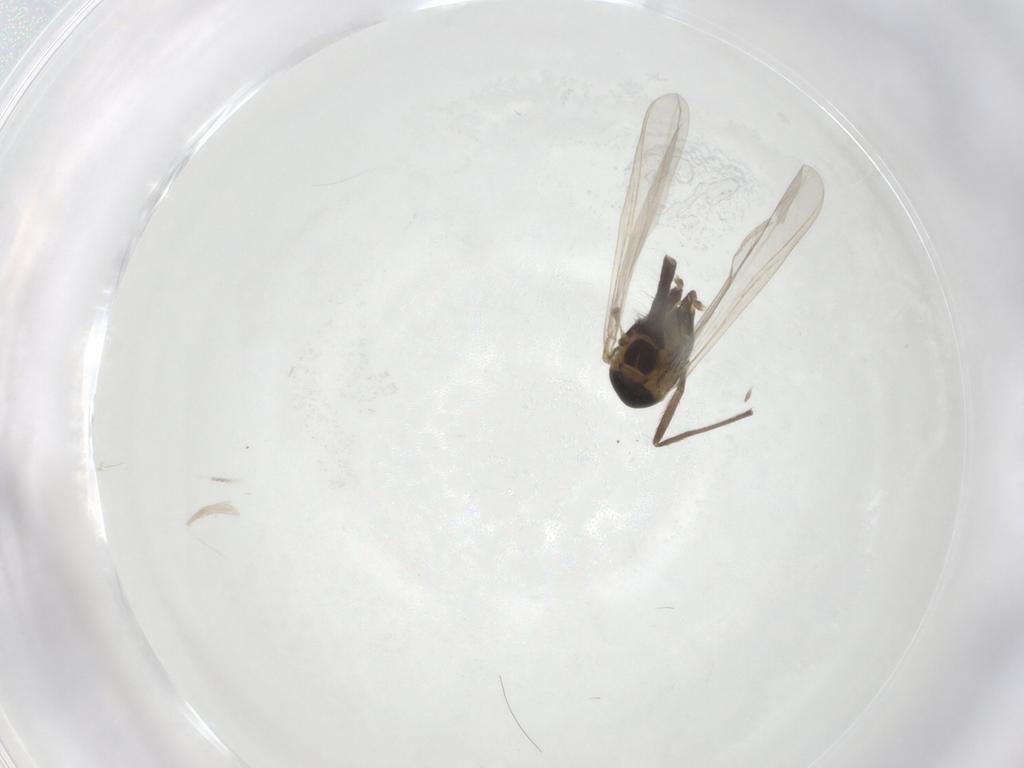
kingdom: Animalia
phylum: Arthropoda
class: Insecta
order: Diptera
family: Chironomidae
